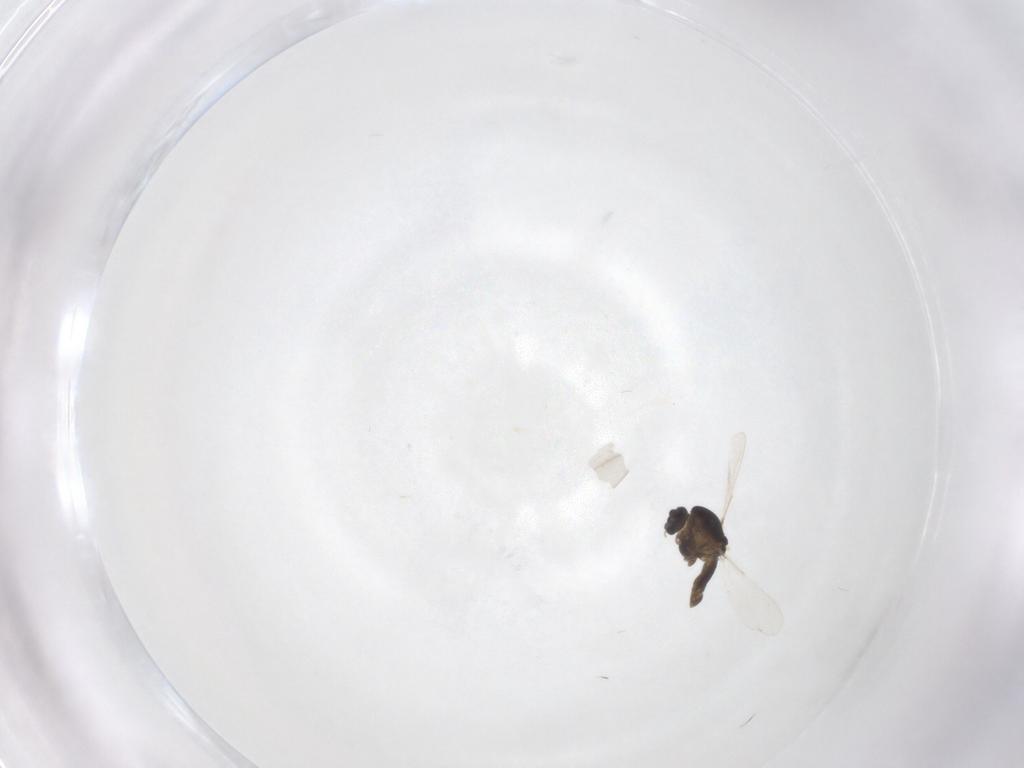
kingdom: Animalia
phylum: Arthropoda
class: Insecta
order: Diptera
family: Chironomidae
